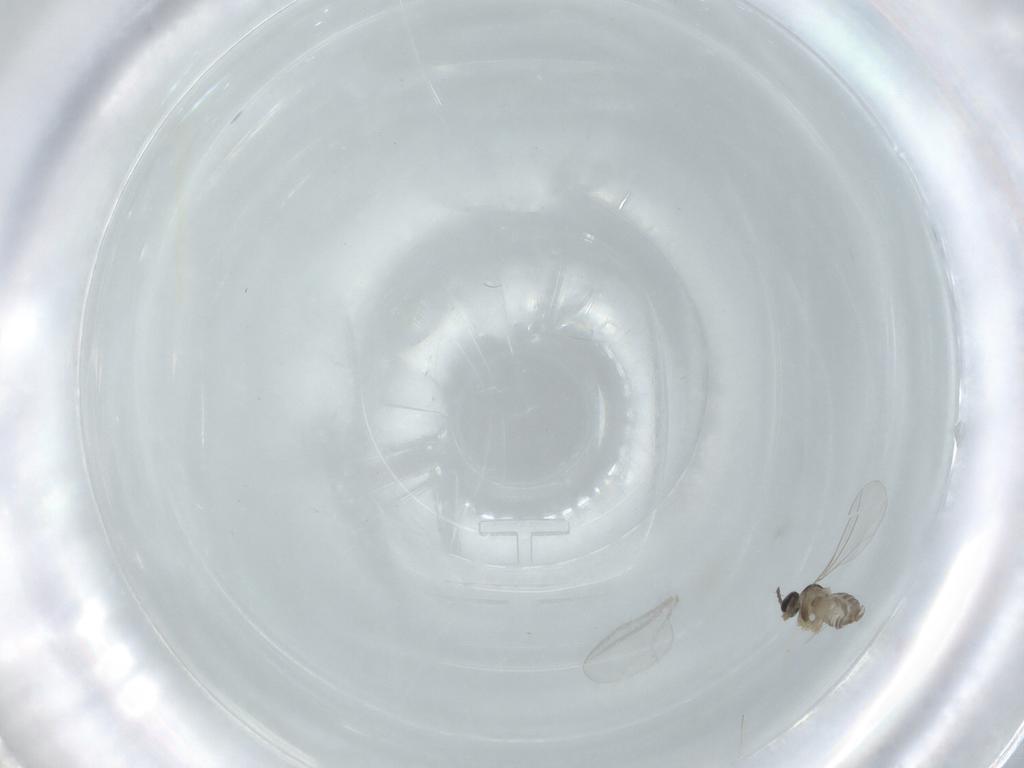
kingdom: Animalia
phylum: Arthropoda
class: Insecta
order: Diptera
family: Cecidomyiidae
